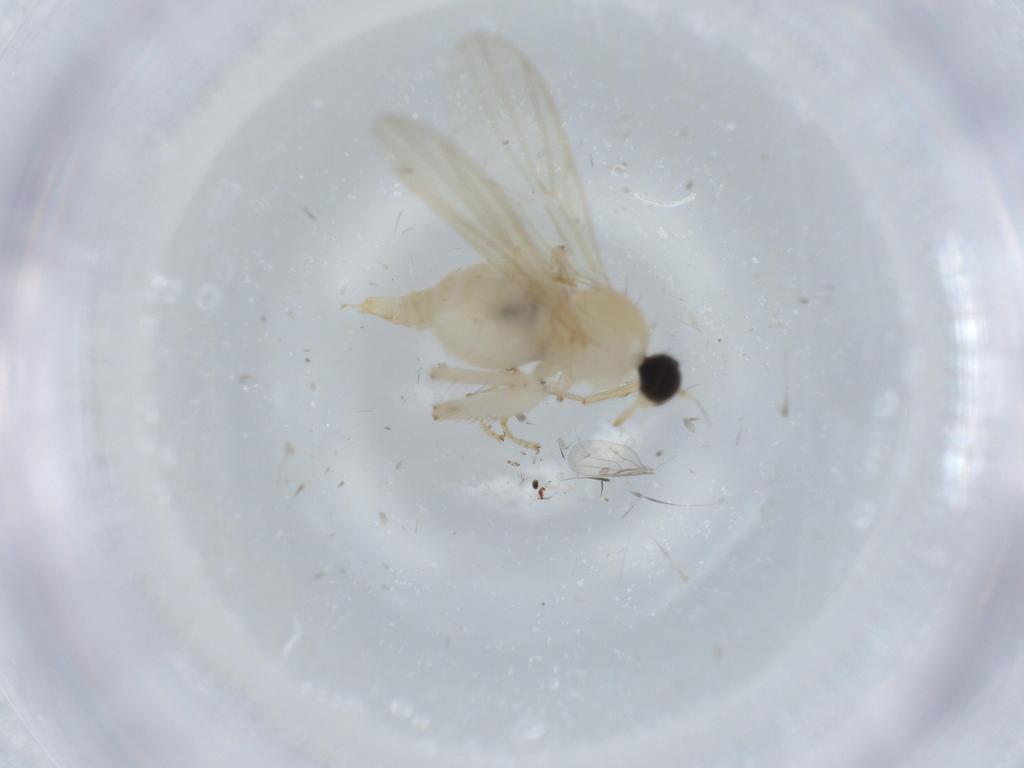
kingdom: Animalia
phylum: Arthropoda
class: Insecta
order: Diptera
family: Hybotidae
